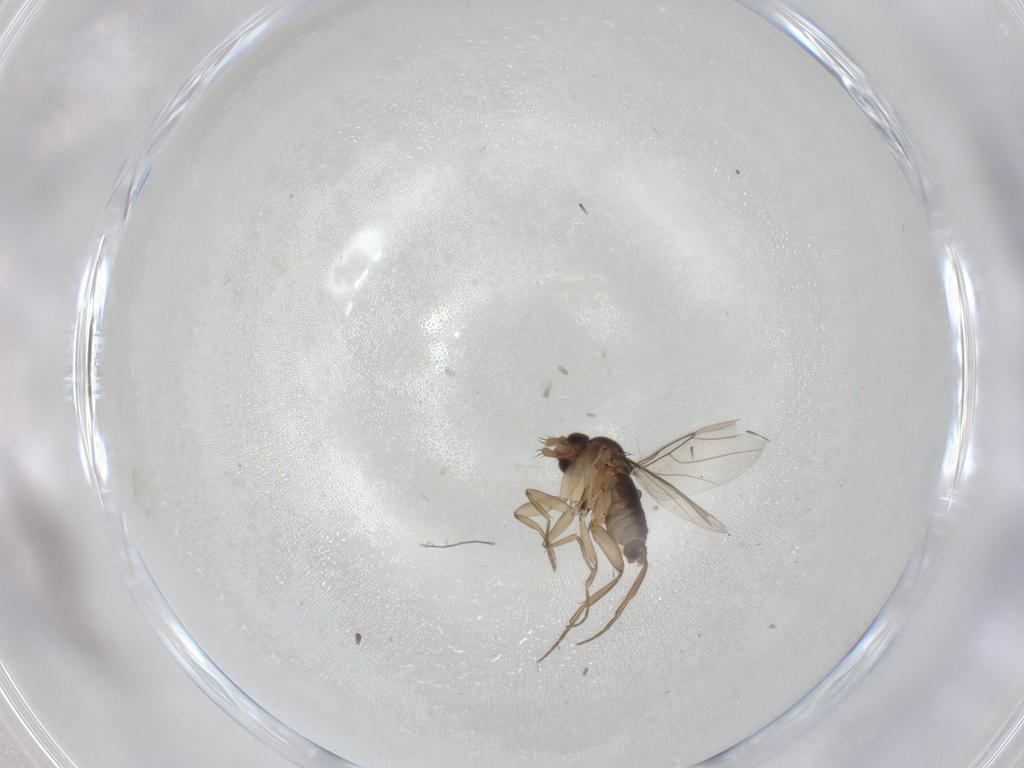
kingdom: Animalia
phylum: Arthropoda
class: Insecta
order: Diptera
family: Phoridae
